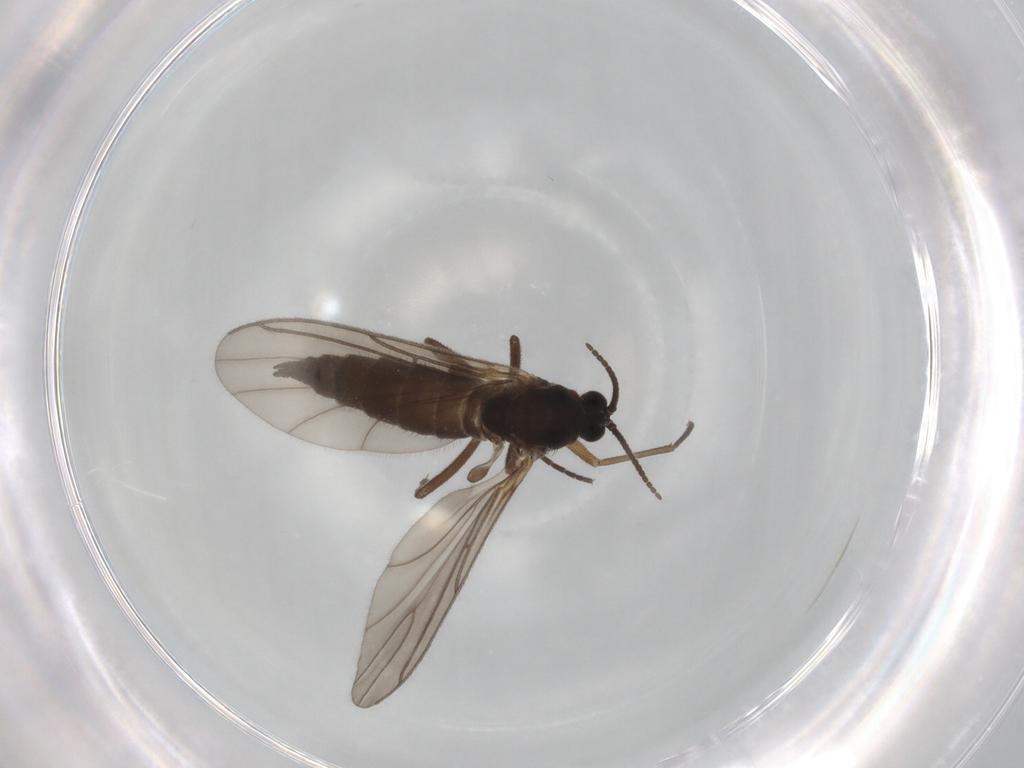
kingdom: Animalia
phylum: Arthropoda
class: Insecta
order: Diptera
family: Sciaridae
